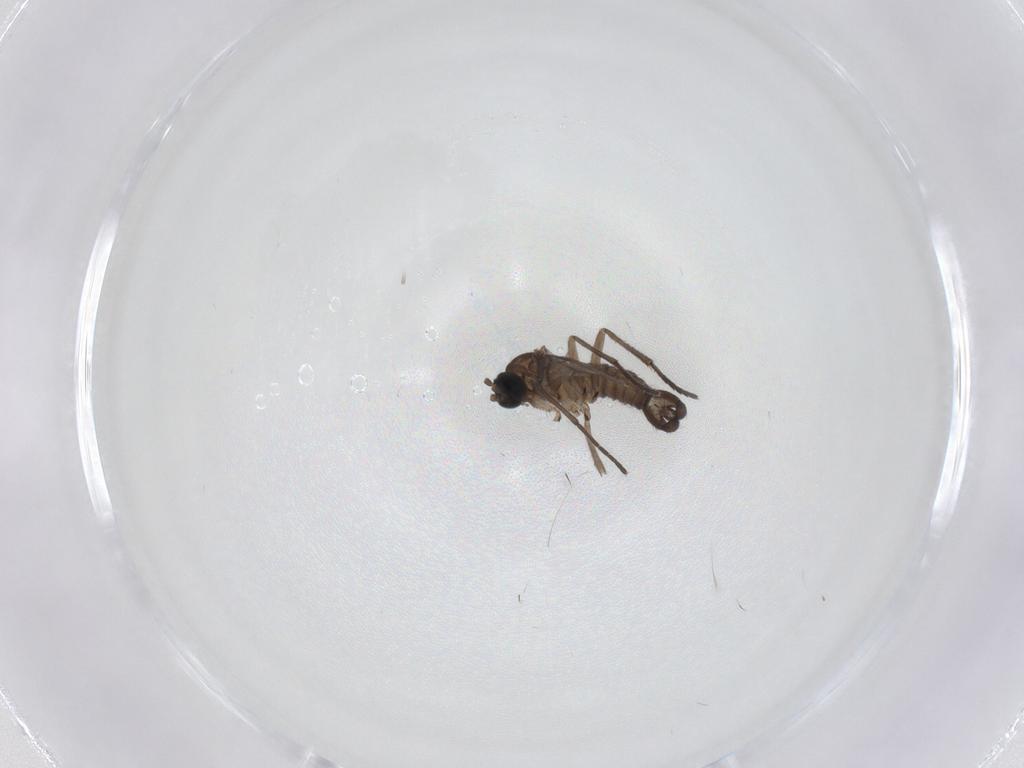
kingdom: Animalia
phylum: Arthropoda
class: Insecta
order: Diptera
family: Sciaridae
